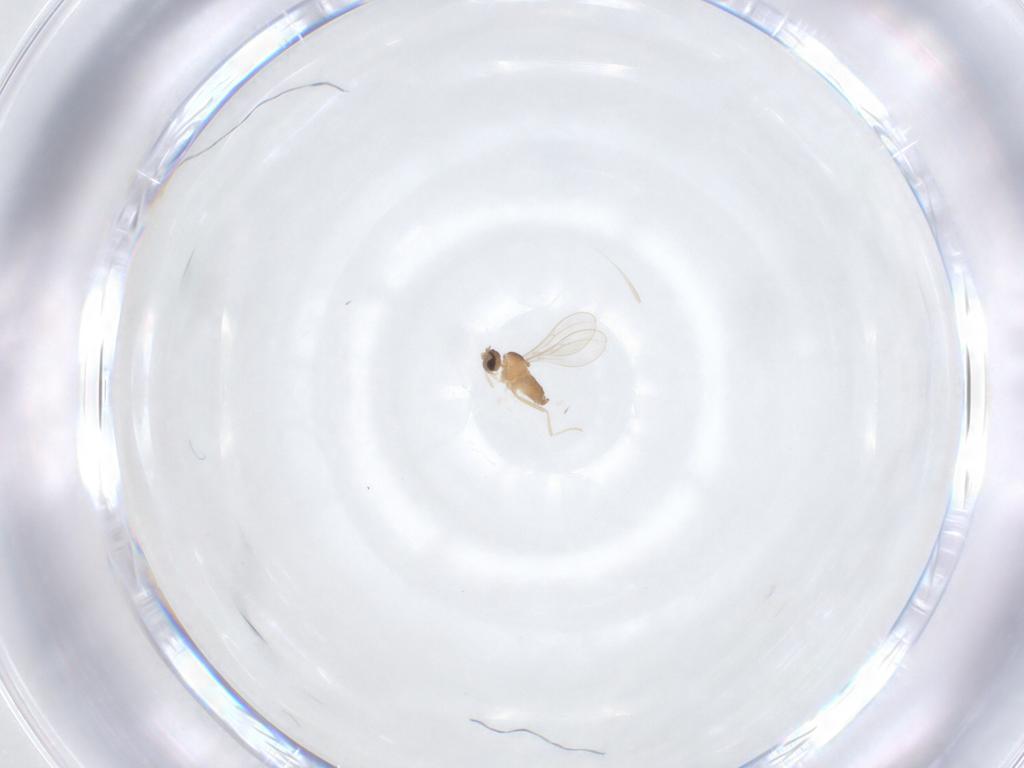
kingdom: Animalia
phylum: Arthropoda
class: Insecta
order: Diptera
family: Cecidomyiidae
